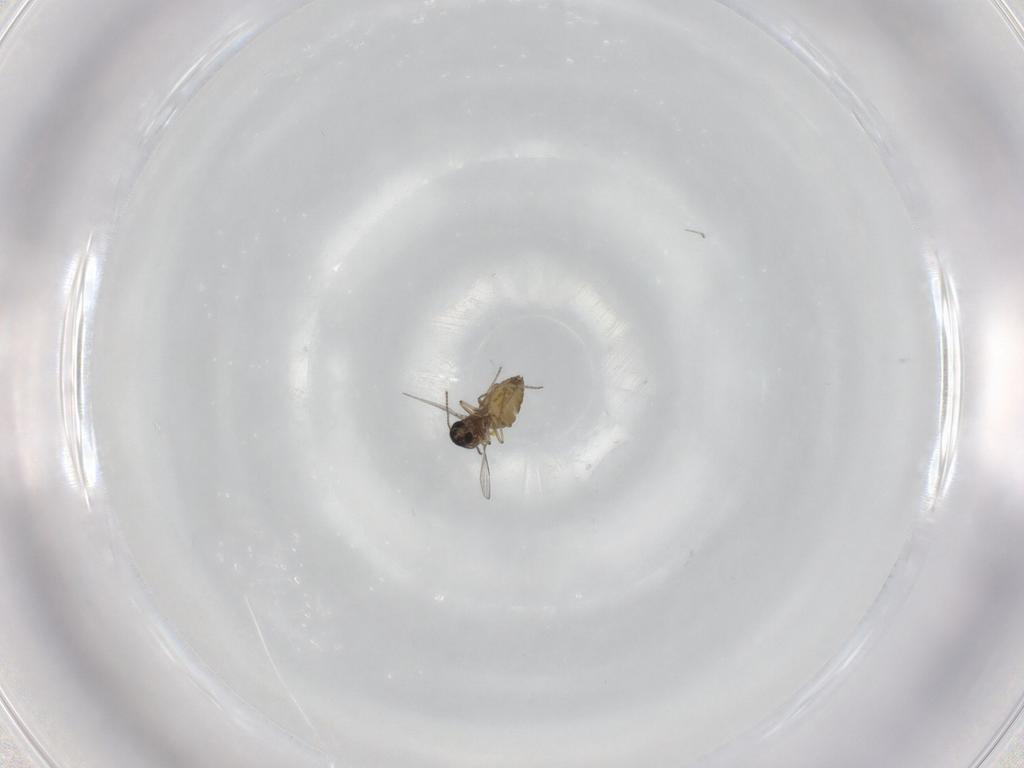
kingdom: Animalia
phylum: Arthropoda
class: Insecta
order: Diptera
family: Ceratopogonidae
